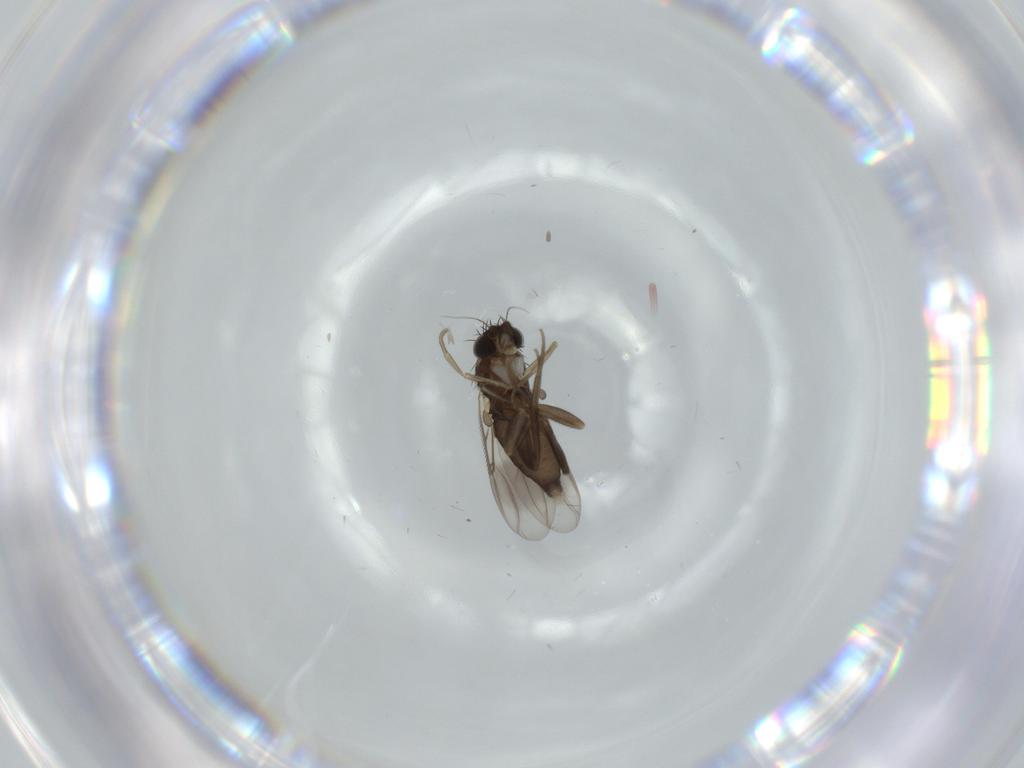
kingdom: Animalia
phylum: Arthropoda
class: Insecta
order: Diptera
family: Phoridae
